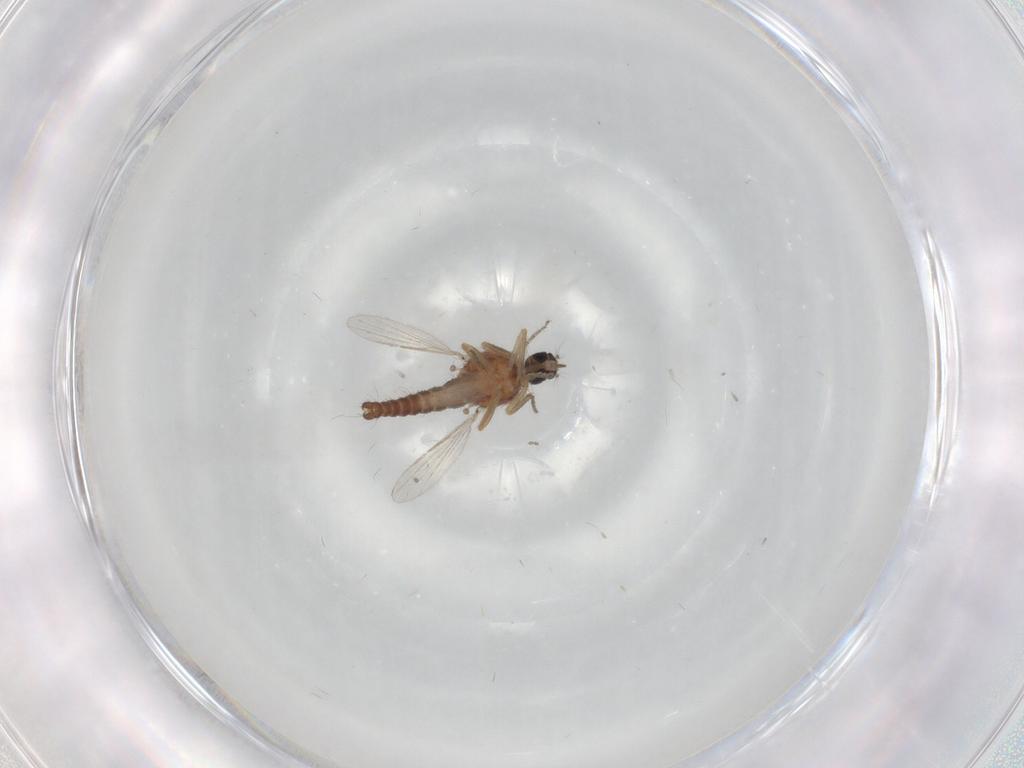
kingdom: Animalia
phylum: Arthropoda
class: Insecta
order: Diptera
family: Ceratopogonidae
